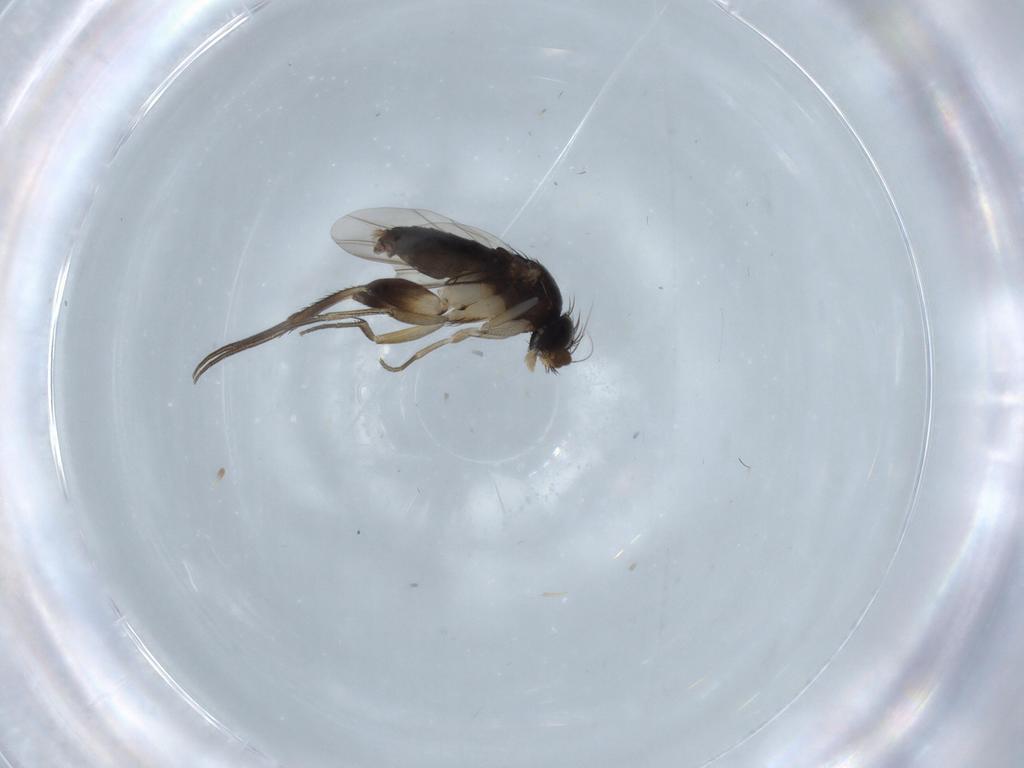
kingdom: Animalia
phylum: Arthropoda
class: Insecta
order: Diptera
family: Phoridae
